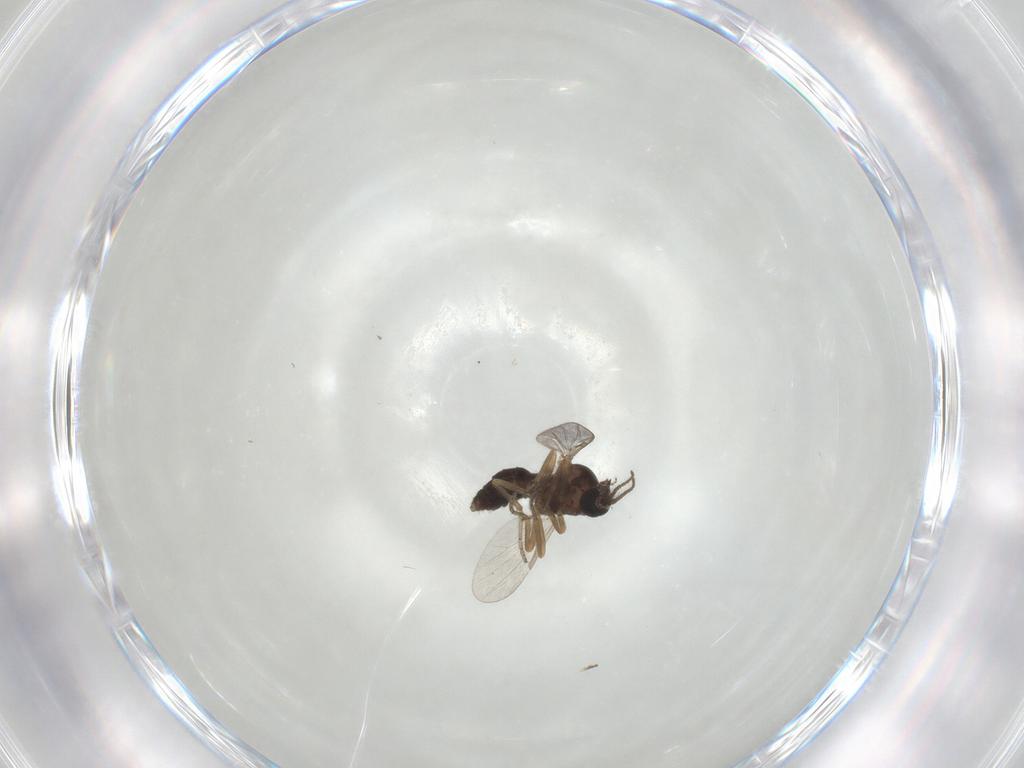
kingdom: Animalia
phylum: Arthropoda
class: Insecta
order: Diptera
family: Ceratopogonidae
